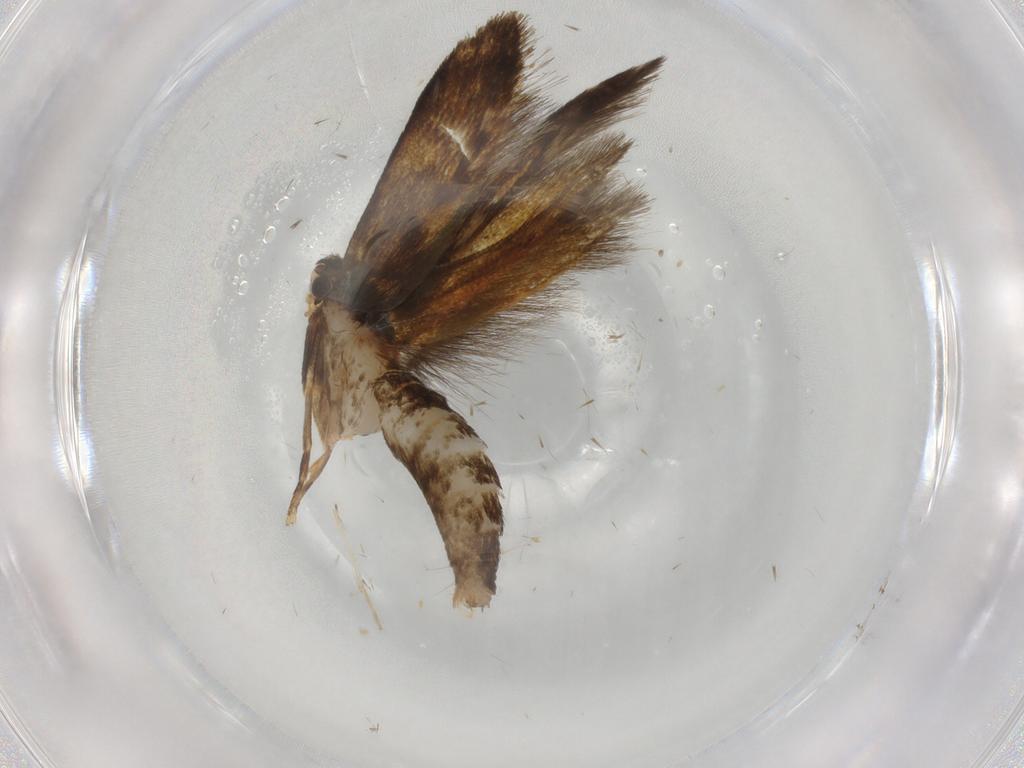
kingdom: Animalia
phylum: Arthropoda
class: Insecta
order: Lepidoptera
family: Tineidae
